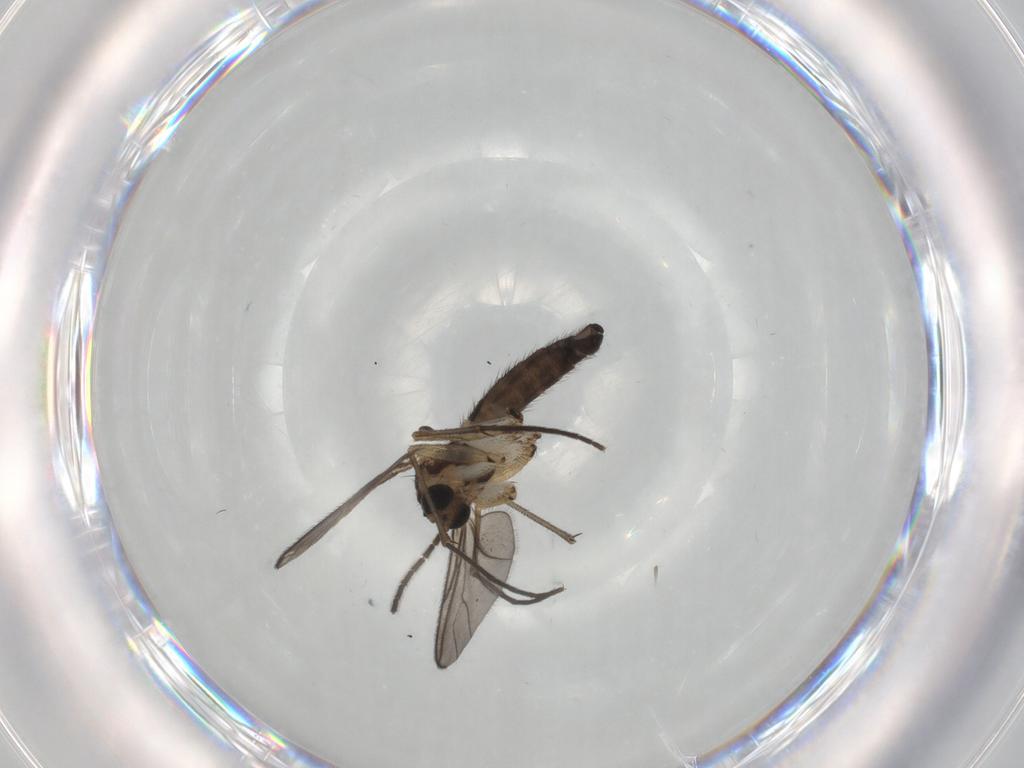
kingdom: Animalia
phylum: Arthropoda
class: Insecta
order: Diptera
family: Sciaridae
